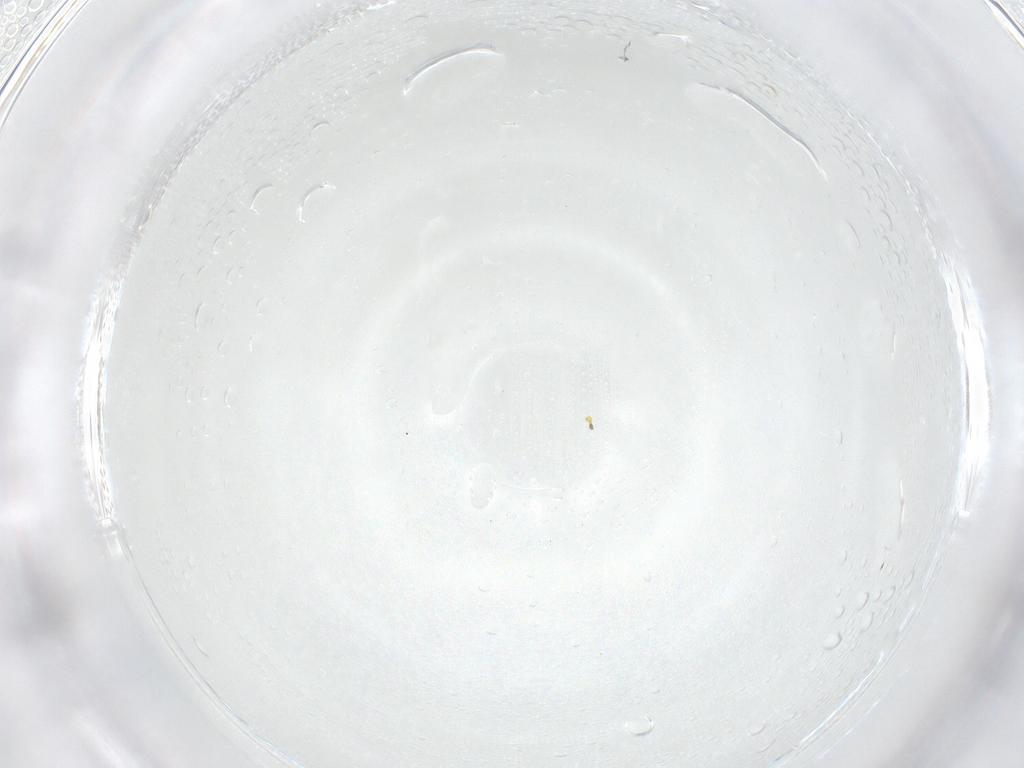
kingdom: Animalia
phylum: Arthropoda
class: Insecta
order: Diptera
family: Ceratopogonidae
